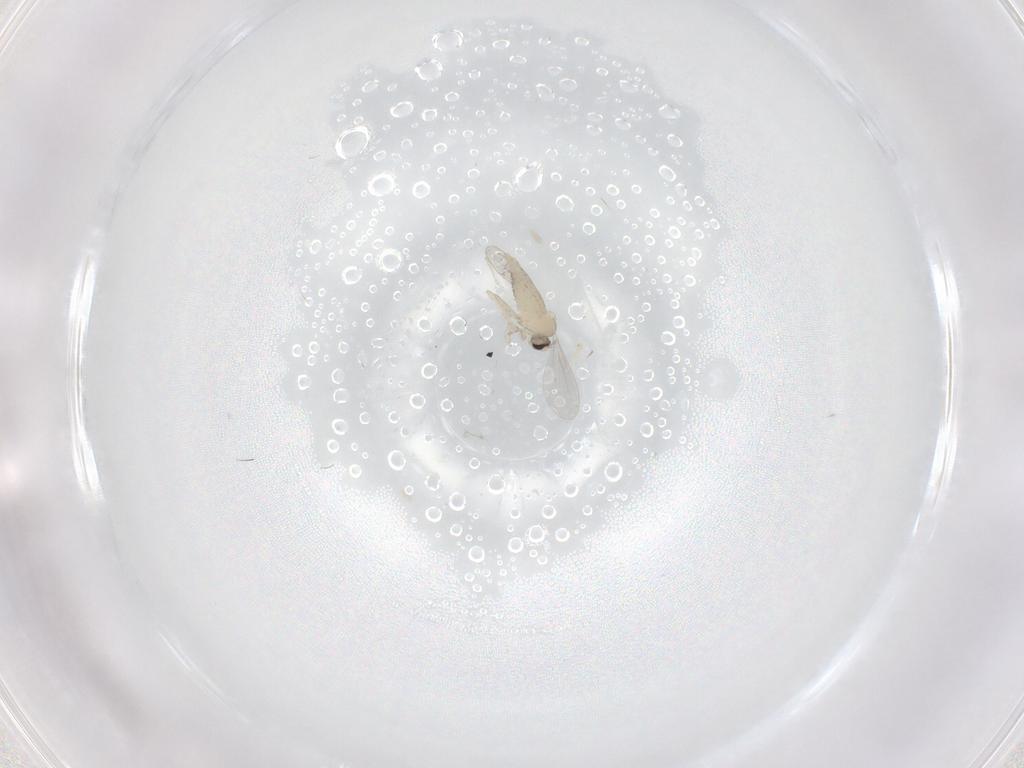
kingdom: Animalia
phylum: Arthropoda
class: Insecta
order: Diptera
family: Cecidomyiidae
